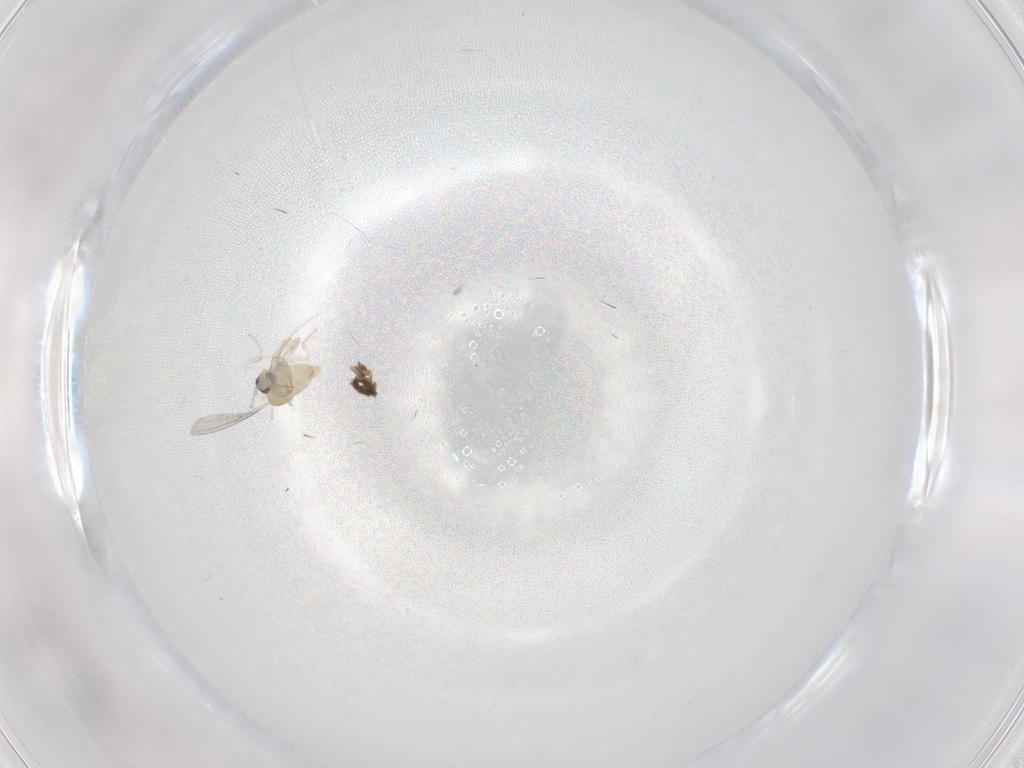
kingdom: Animalia
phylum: Arthropoda
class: Insecta
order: Diptera
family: Cecidomyiidae
